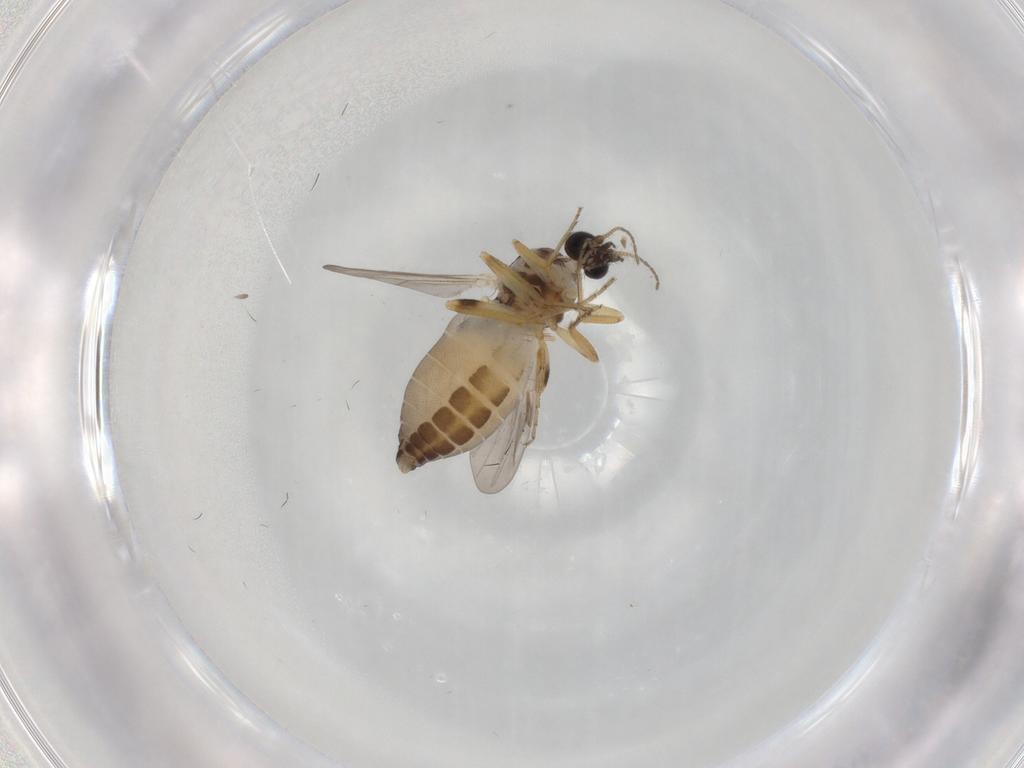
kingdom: Animalia
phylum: Arthropoda
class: Insecta
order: Diptera
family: Ceratopogonidae
